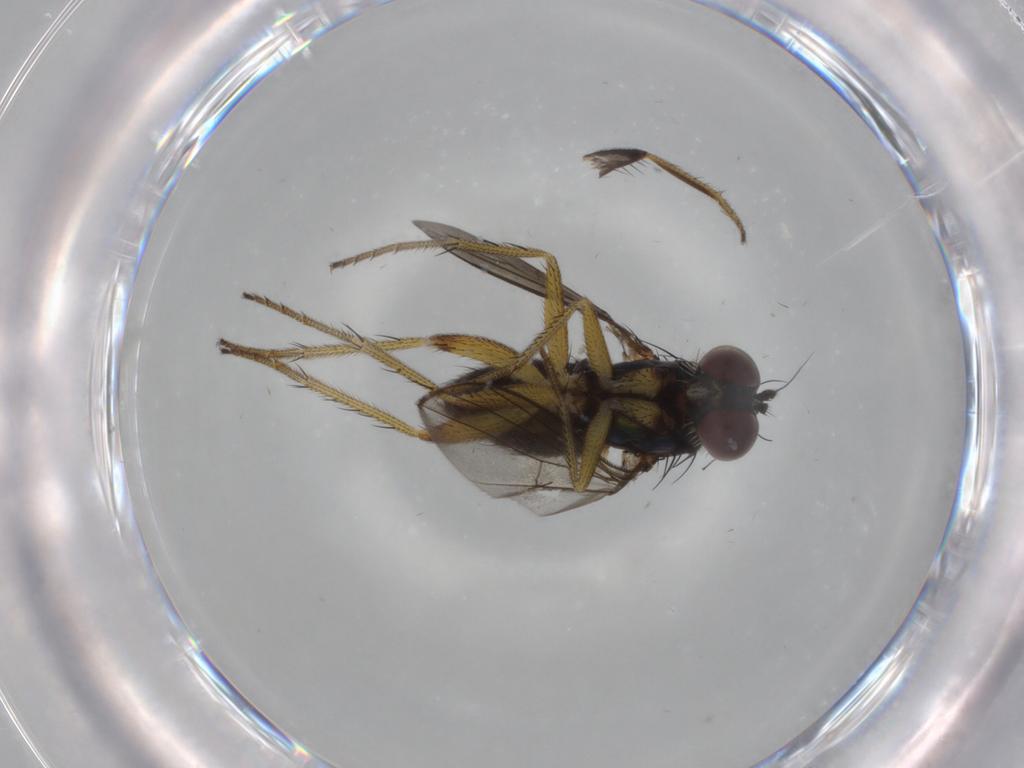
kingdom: Animalia
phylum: Arthropoda
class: Insecta
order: Diptera
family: Dolichopodidae
